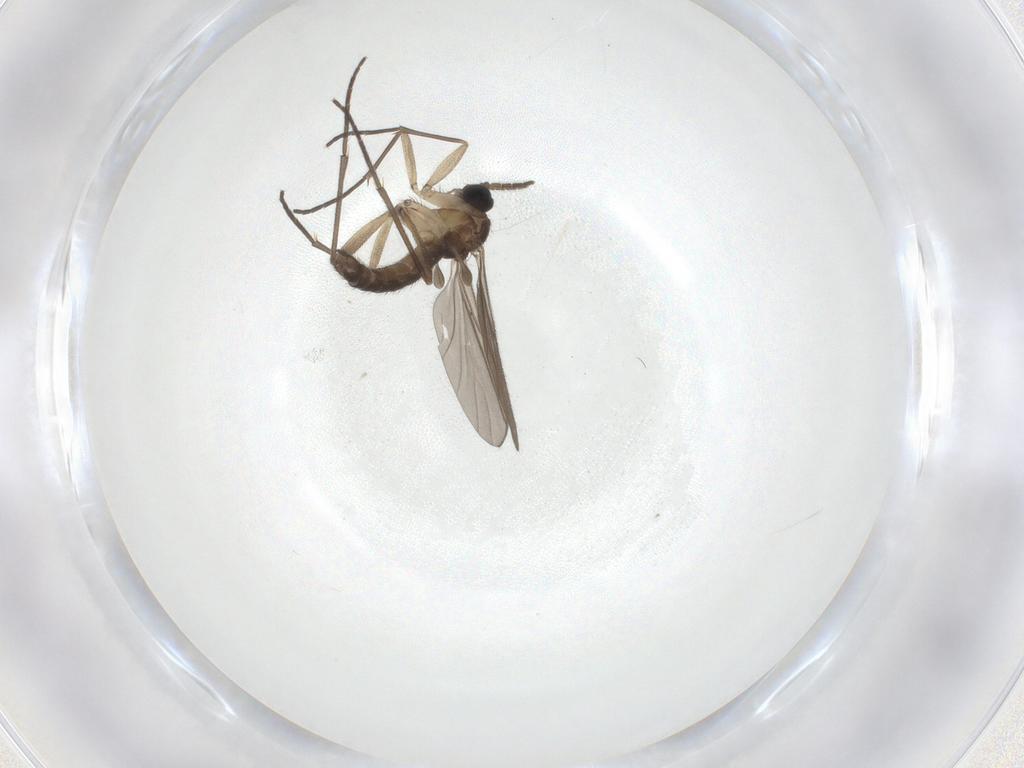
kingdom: Animalia
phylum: Arthropoda
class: Insecta
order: Diptera
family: Sciaridae
